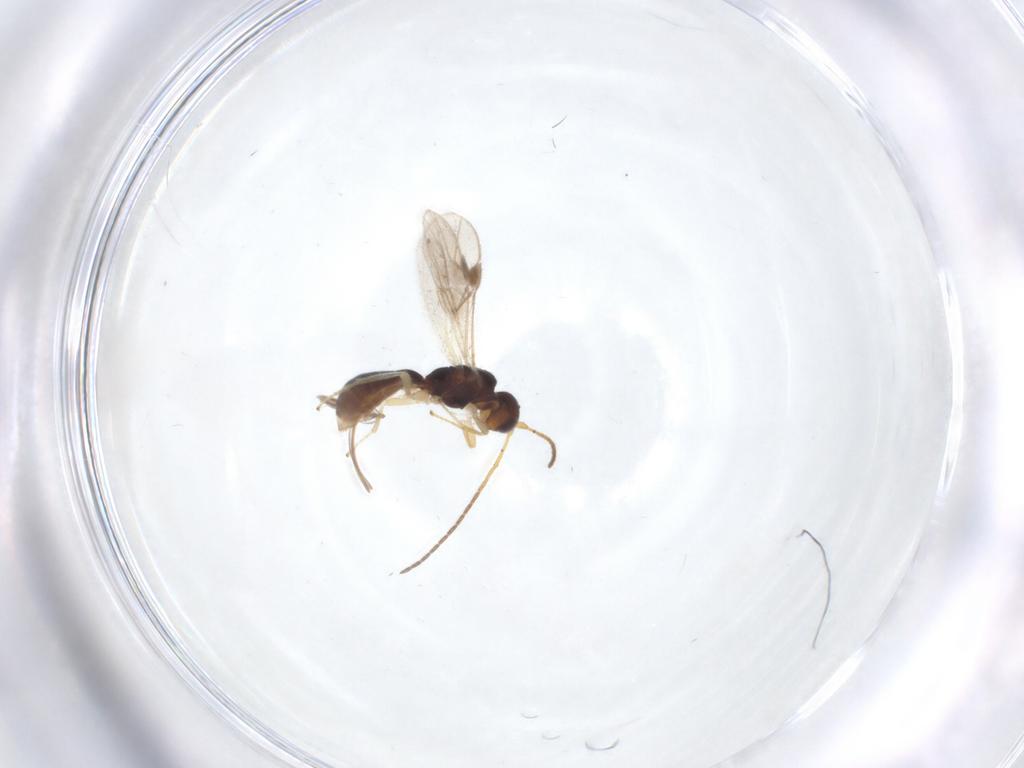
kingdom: Animalia
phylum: Arthropoda
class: Insecta
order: Hymenoptera
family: Braconidae
